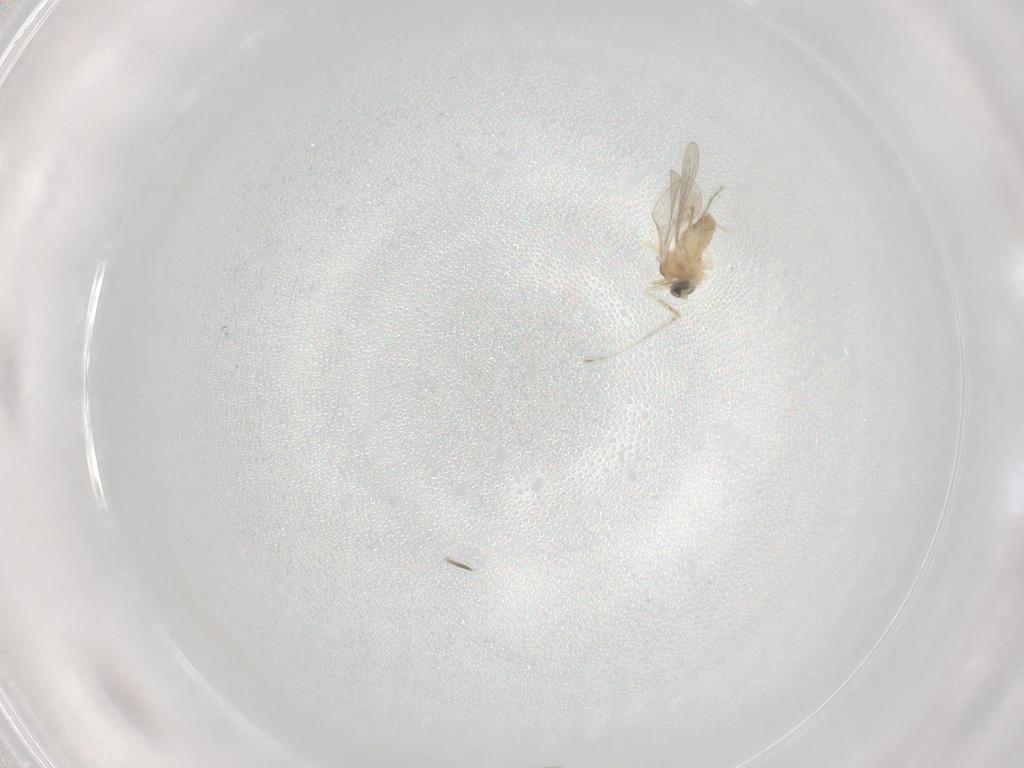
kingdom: Animalia
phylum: Arthropoda
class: Insecta
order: Diptera
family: Cecidomyiidae
